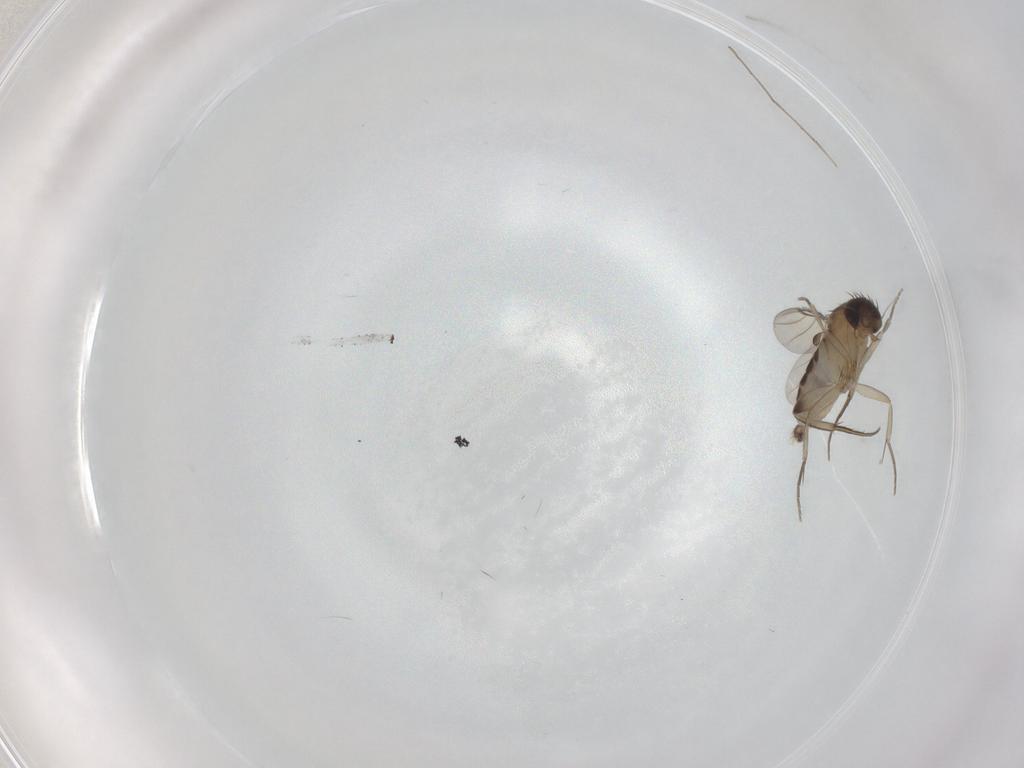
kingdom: Animalia
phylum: Arthropoda
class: Insecta
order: Diptera
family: Phoridae
